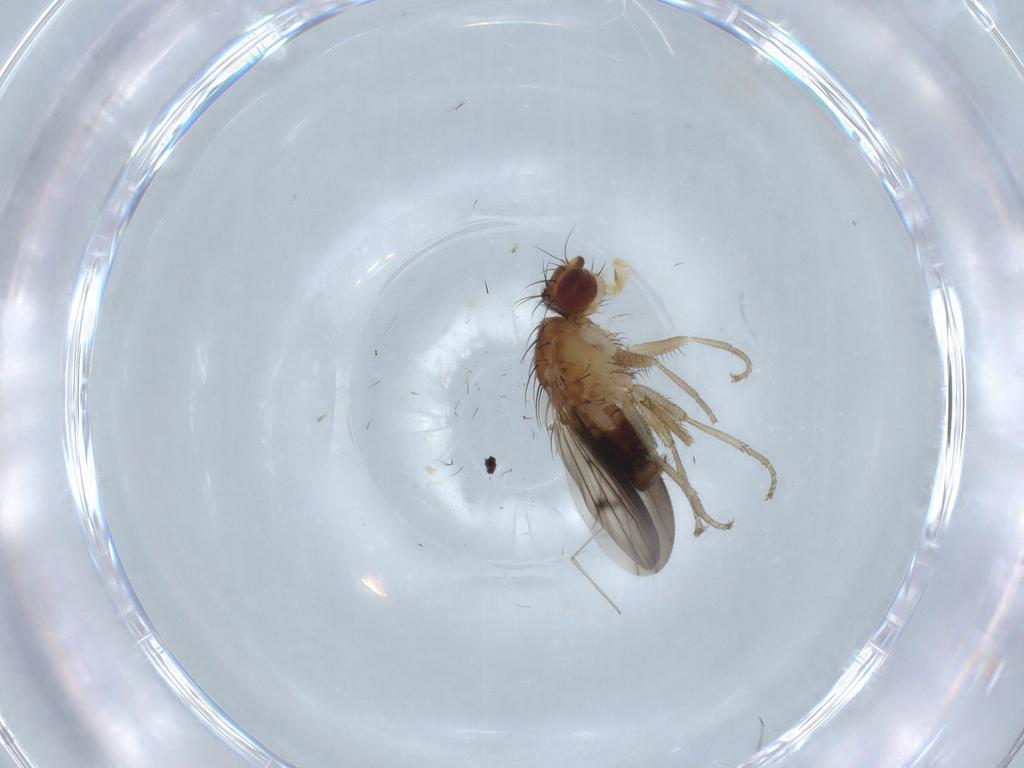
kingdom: Animalia
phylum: Arthropoda
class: Insecta
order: Diptera
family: Heleomyzidae
